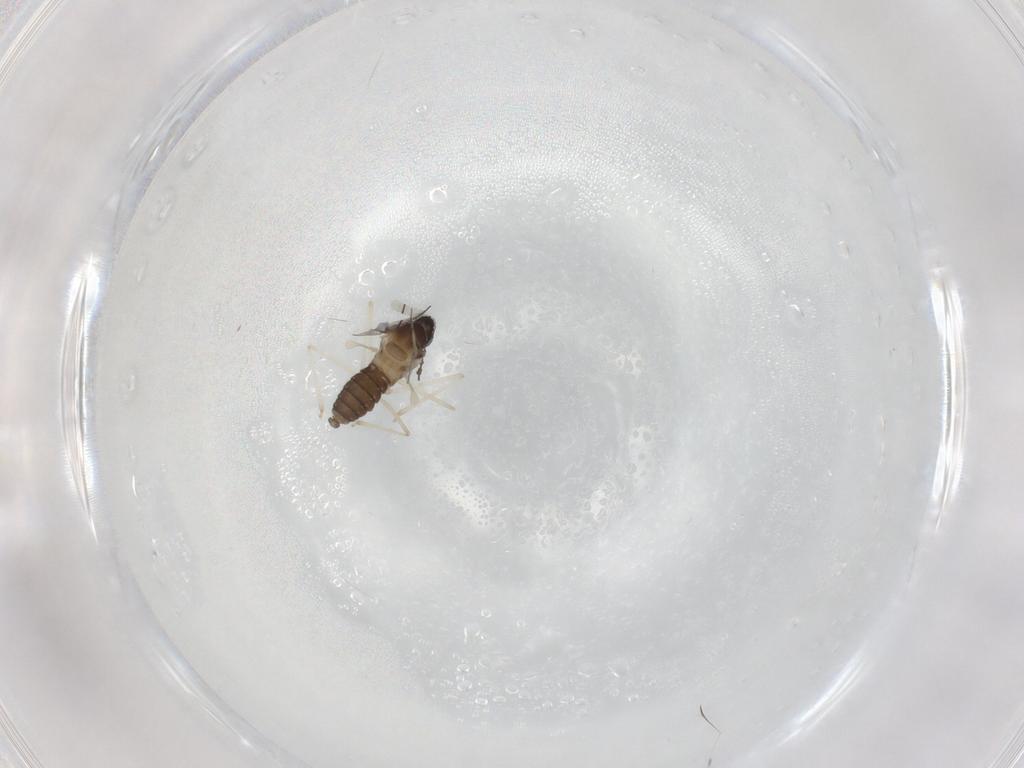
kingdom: Animalia
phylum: Arthropoda
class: Insecta
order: Diptera
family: Cecidomyiidae
